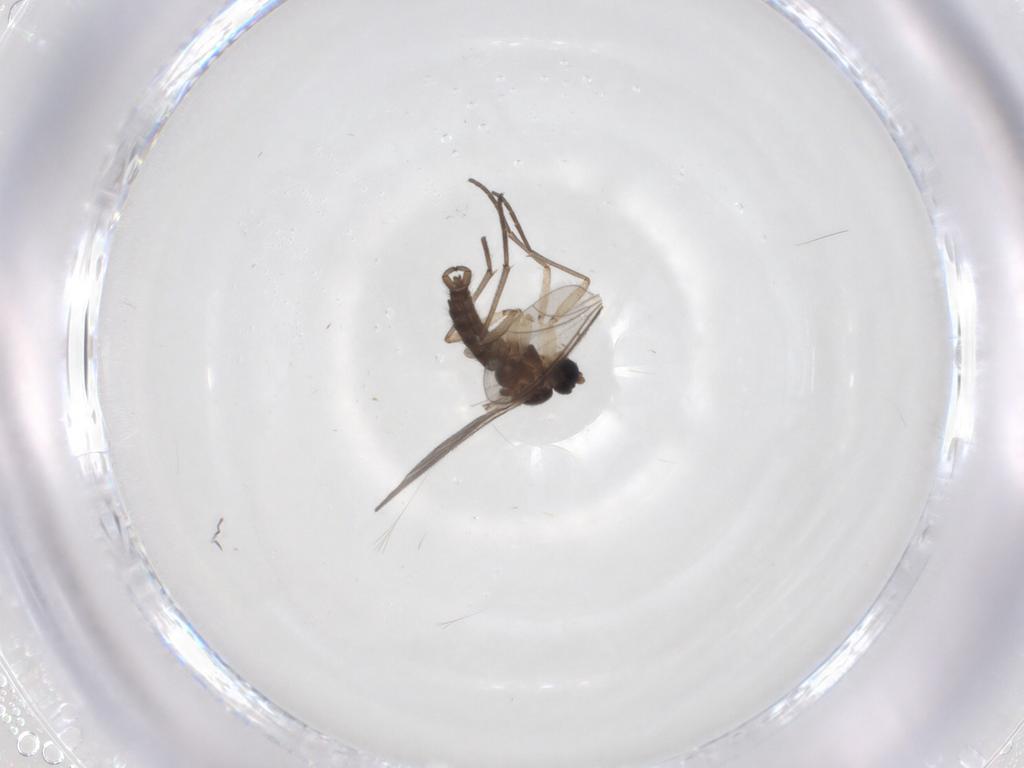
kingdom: Animalia
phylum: Arthropoda
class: Insecta
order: Diptera
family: Sciaridae
